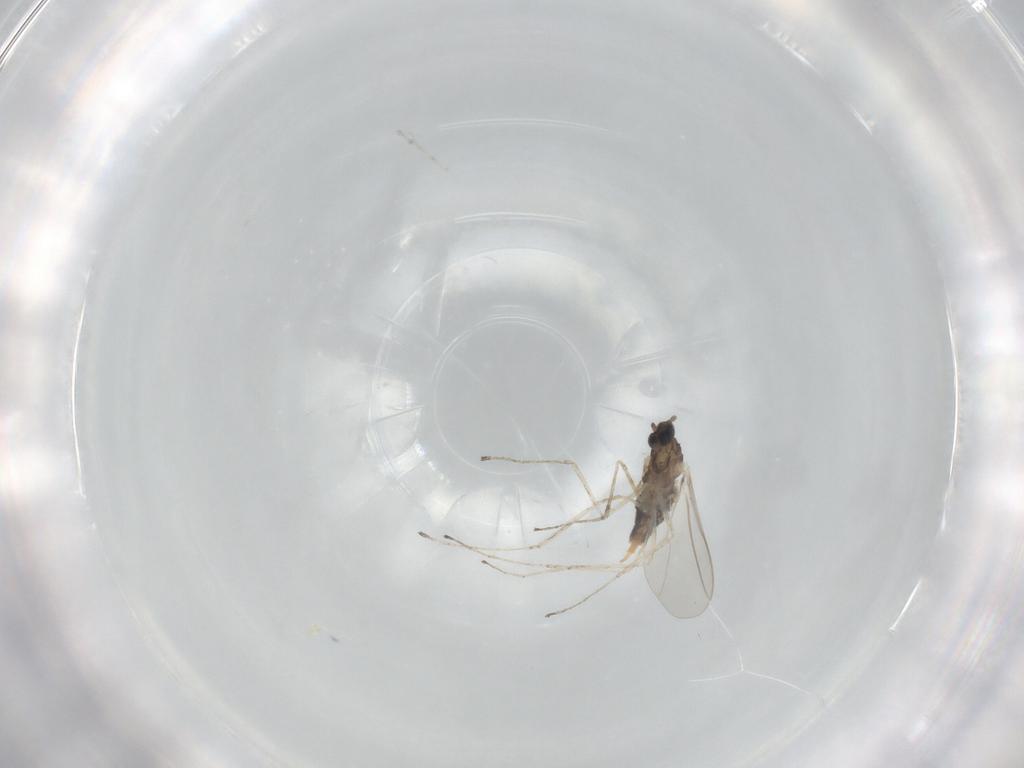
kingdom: Animalia
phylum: Arthropoda
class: Insecta
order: Diptera
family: Cecidomyiidae
